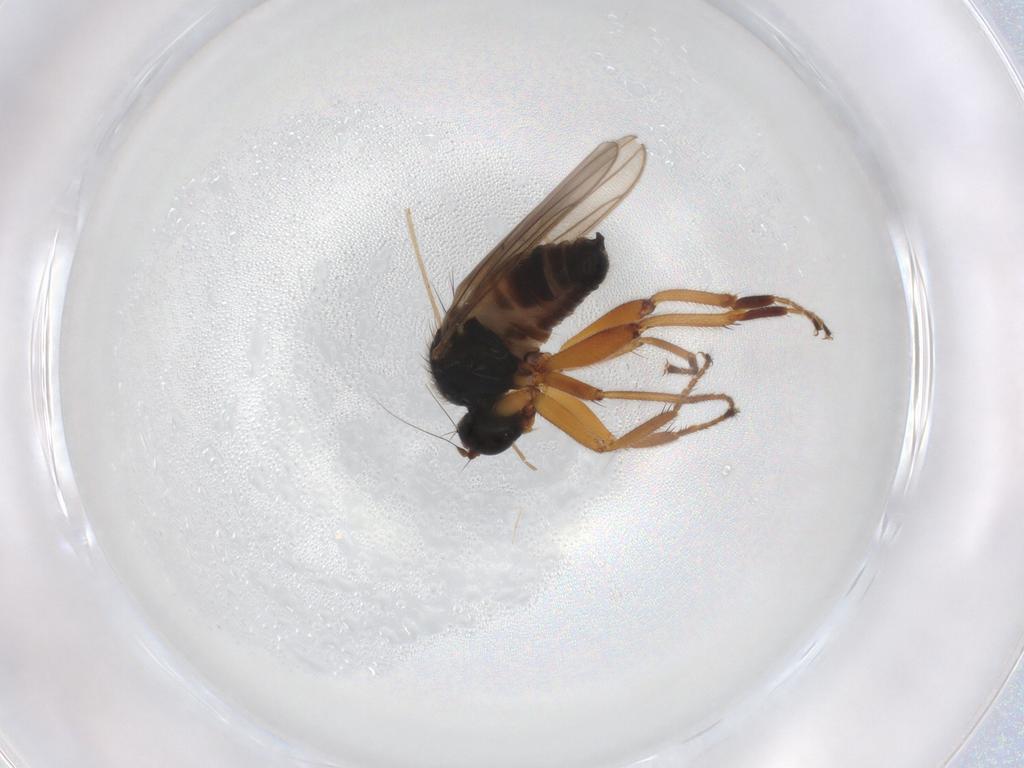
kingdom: Animalia
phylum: Arthropoda
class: Insecta
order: Diptera
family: Hybotidae
